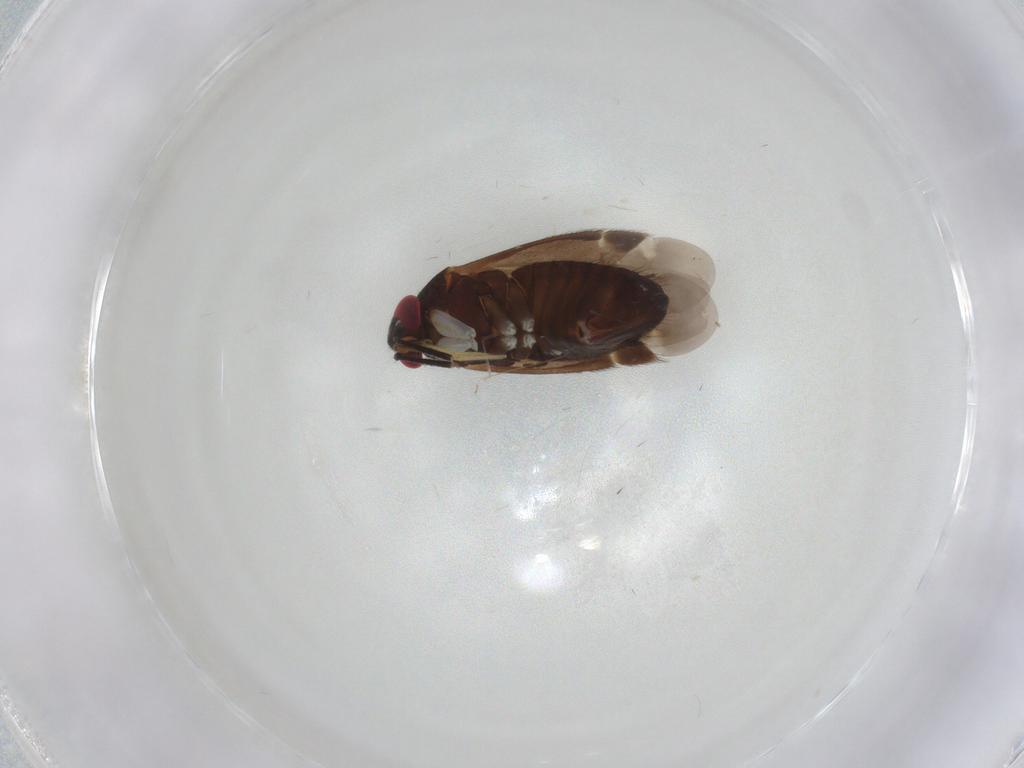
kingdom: Animalia
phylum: Arthropoda
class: Insecta
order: Hemiptera
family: Miridae
